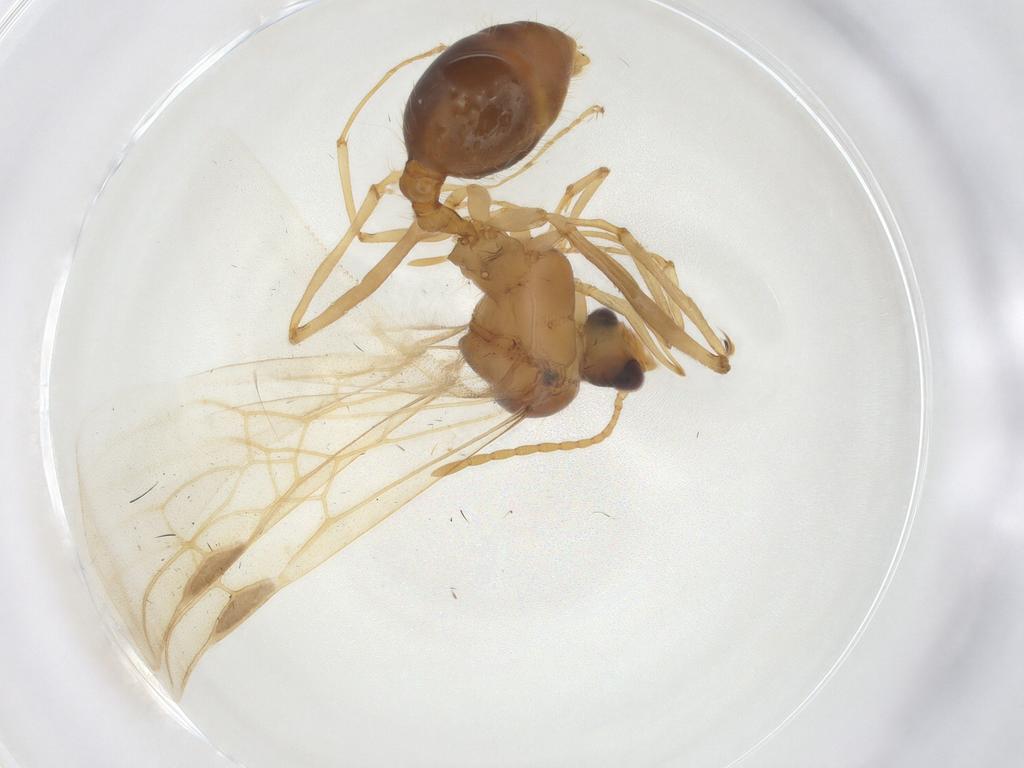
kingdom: Animalia
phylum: Arthropoda
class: Insecta
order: Hymenoptera
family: Formicidae
